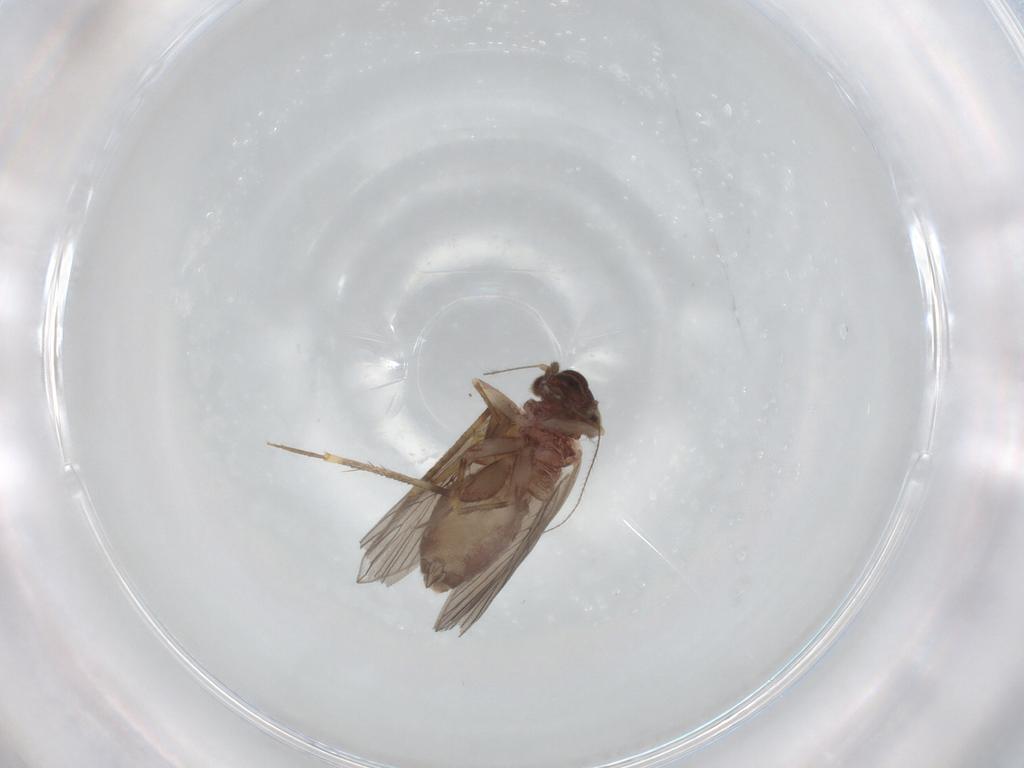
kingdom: Animalia
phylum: Arthropoda
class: Insecta
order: Psocodea
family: Lepidopsocidae
